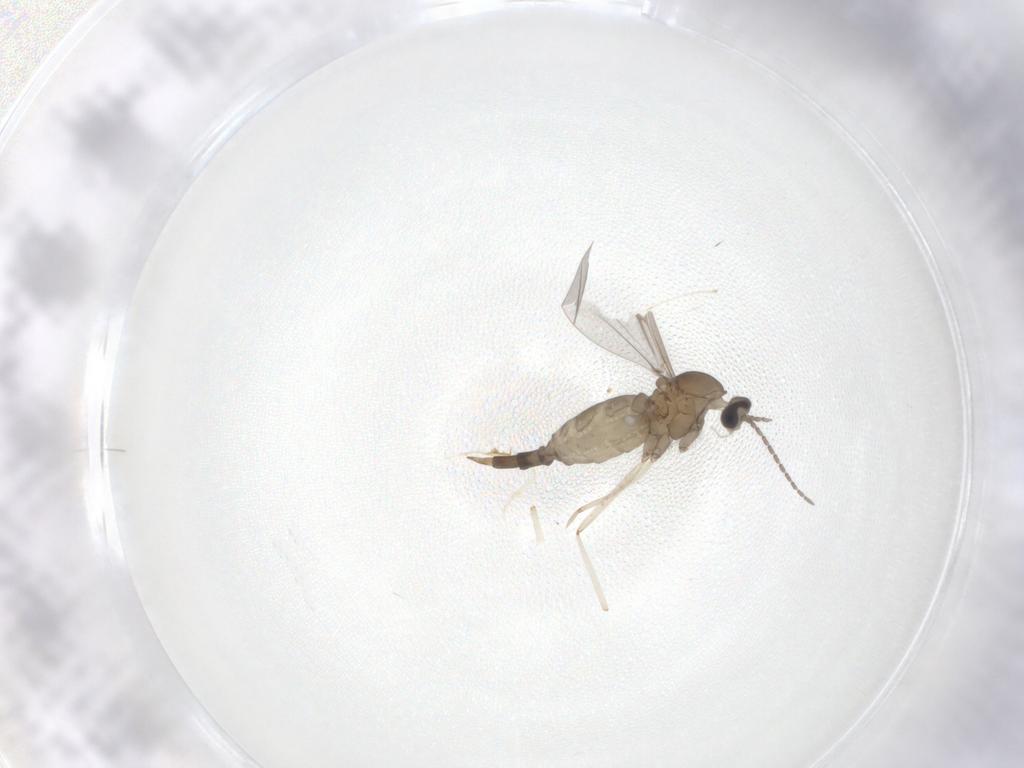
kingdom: Animalia
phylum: Arthropoda
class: Insecta
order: Diptera
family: Cecidomyiidae
